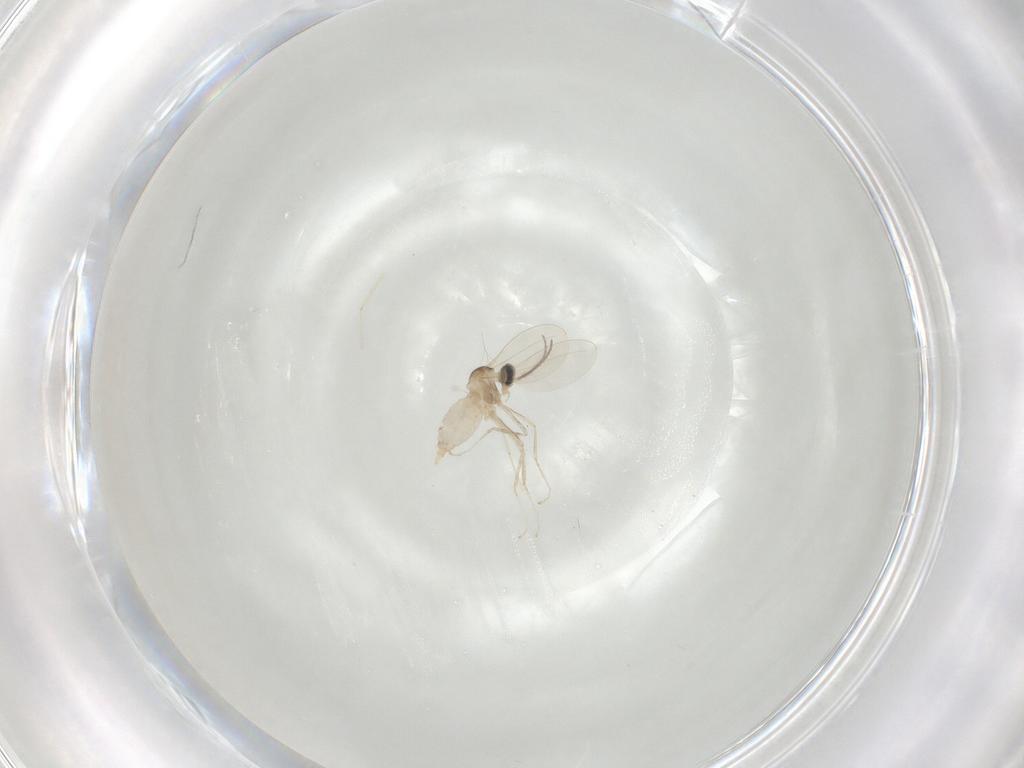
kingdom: Animalia
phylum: Arthropoda
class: Insecta
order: Diptera
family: Cecidomyiidae
